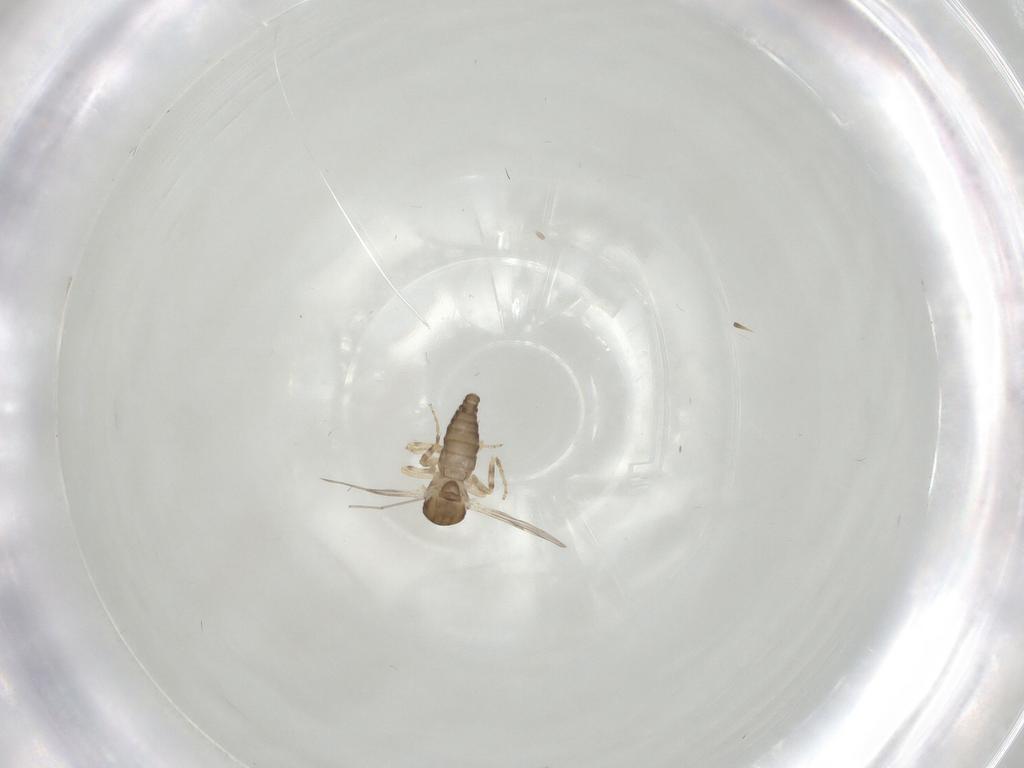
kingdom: Animalia
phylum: Arthropoda
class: Insecta
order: Diptera
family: Ceratopogonidae
